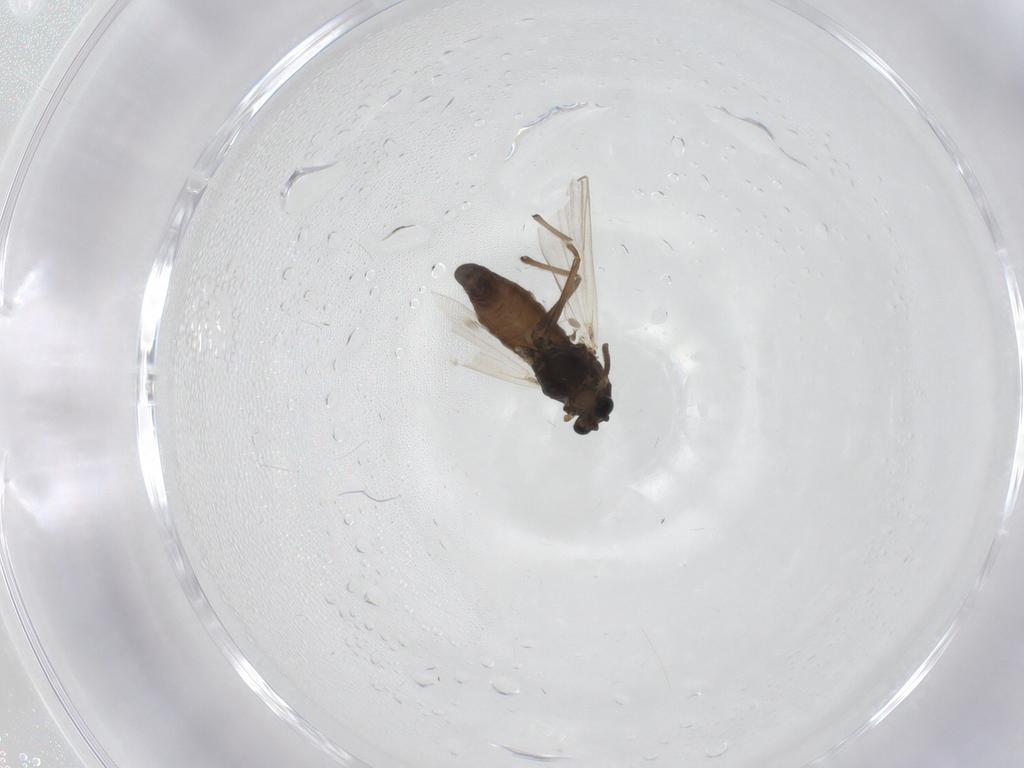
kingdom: Animalia
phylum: Arthropoda
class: Insecta
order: Diptera
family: Chironomidae
